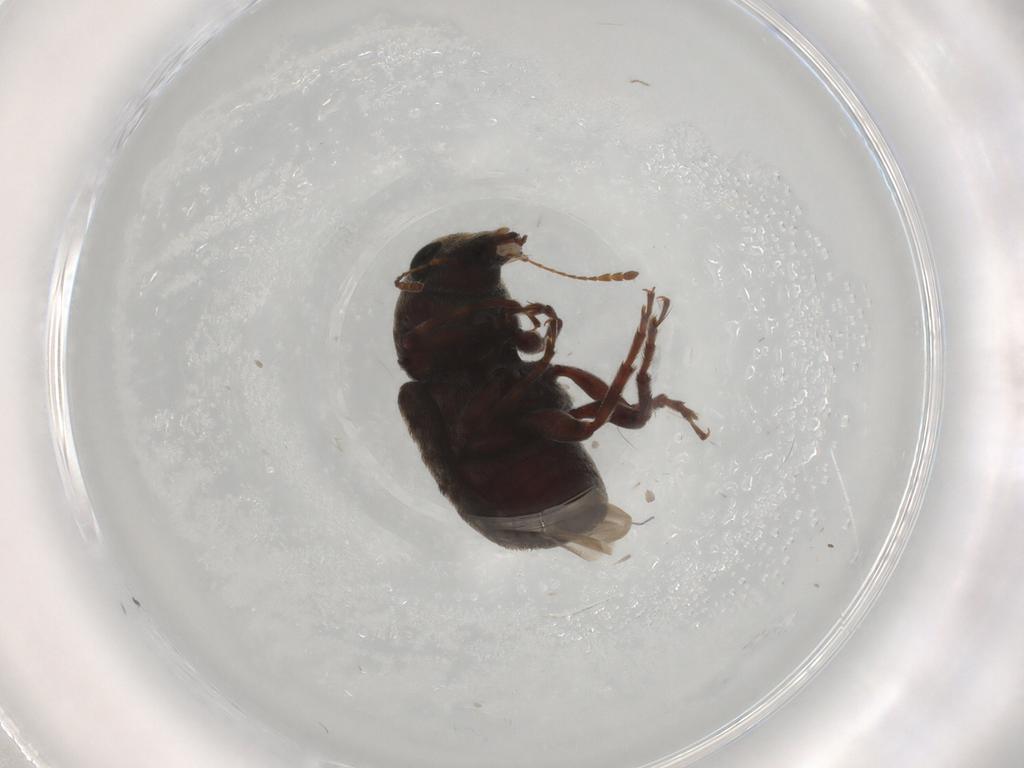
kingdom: Animalia
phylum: Arthropoda
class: Insecta
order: Coleoptera
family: Anthribidae
